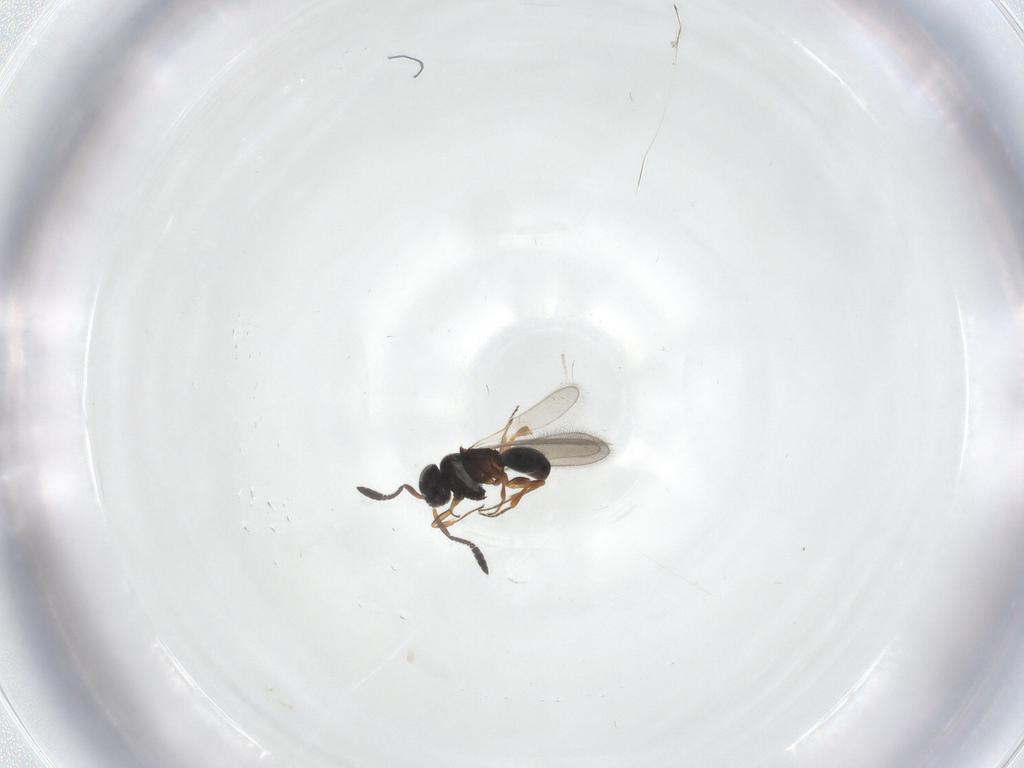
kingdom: Animalia
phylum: Arthropoda
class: Insecta
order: Hymenoptera
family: Scelionidae
